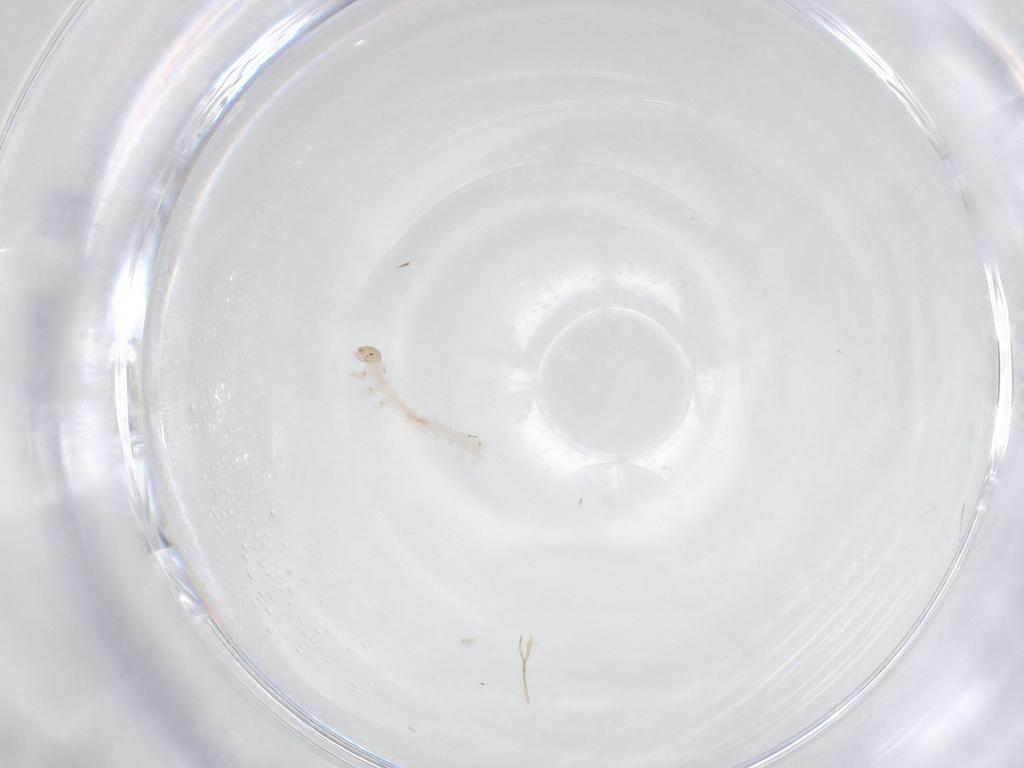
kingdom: Animalia
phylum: Arthropoda
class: Insecta
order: Lepidoptera
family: Erebidae
